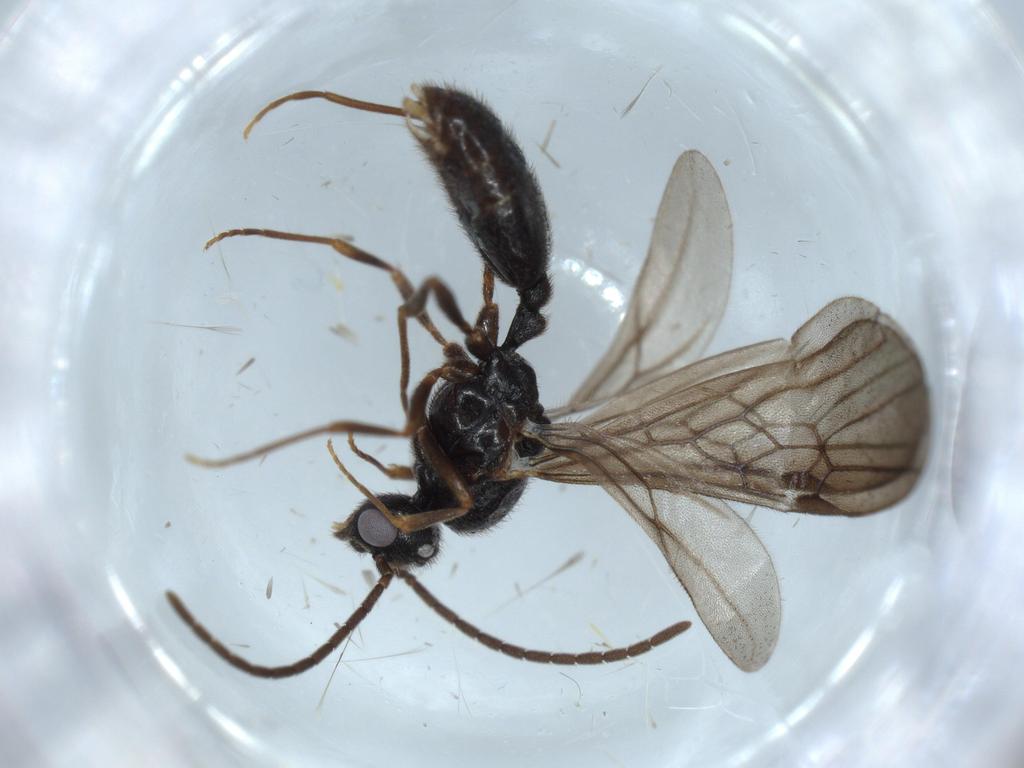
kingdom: Animalia
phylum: Arthropoda
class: Insecta
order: Hymenoptera
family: Formicidae
